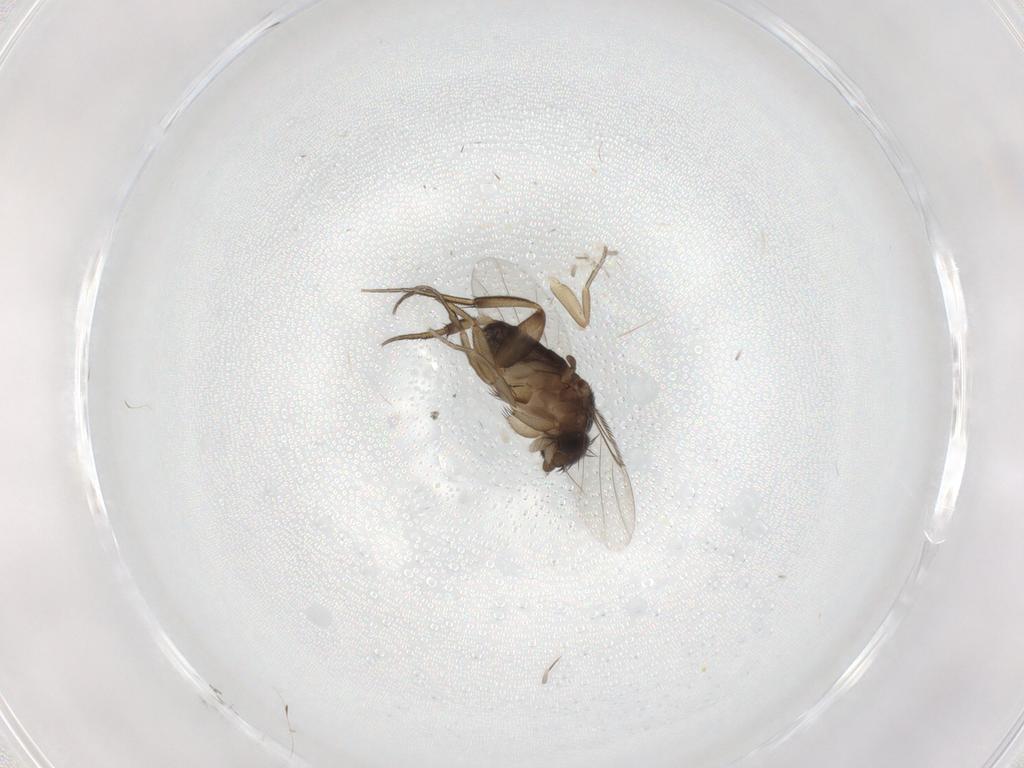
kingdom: Animalia
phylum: Arthropoda
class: Insecta
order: Diptera
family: Phoridae
